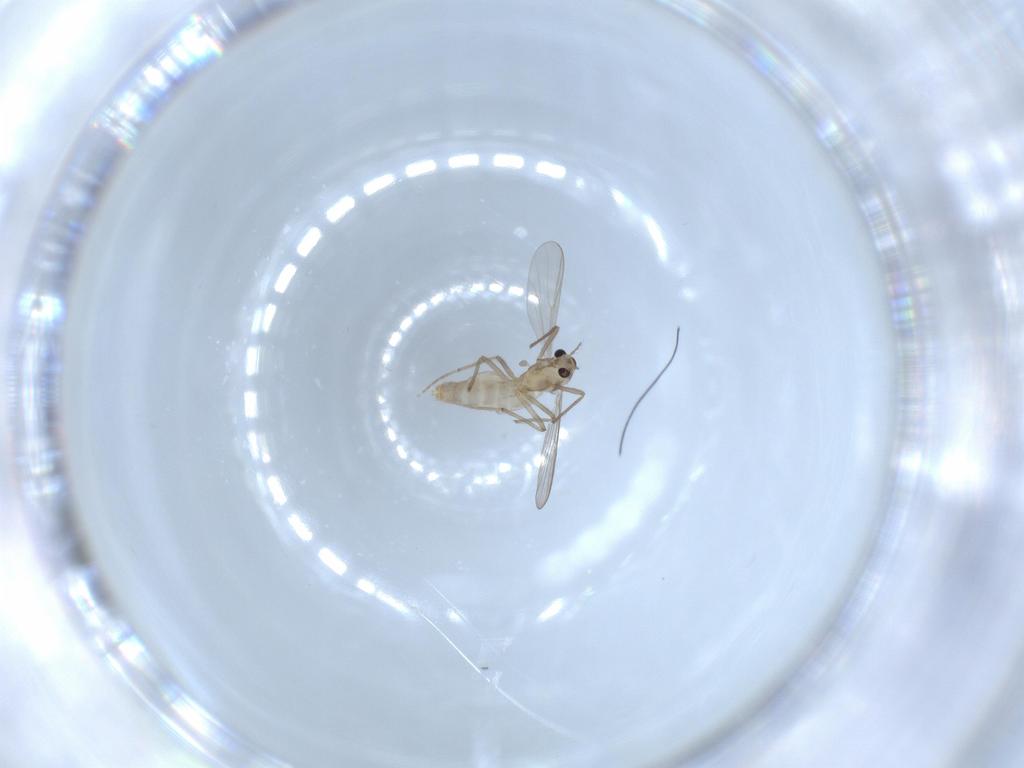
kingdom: Animalia
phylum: Arthropoda
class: Insecta
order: Diptera
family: Chironomidae
